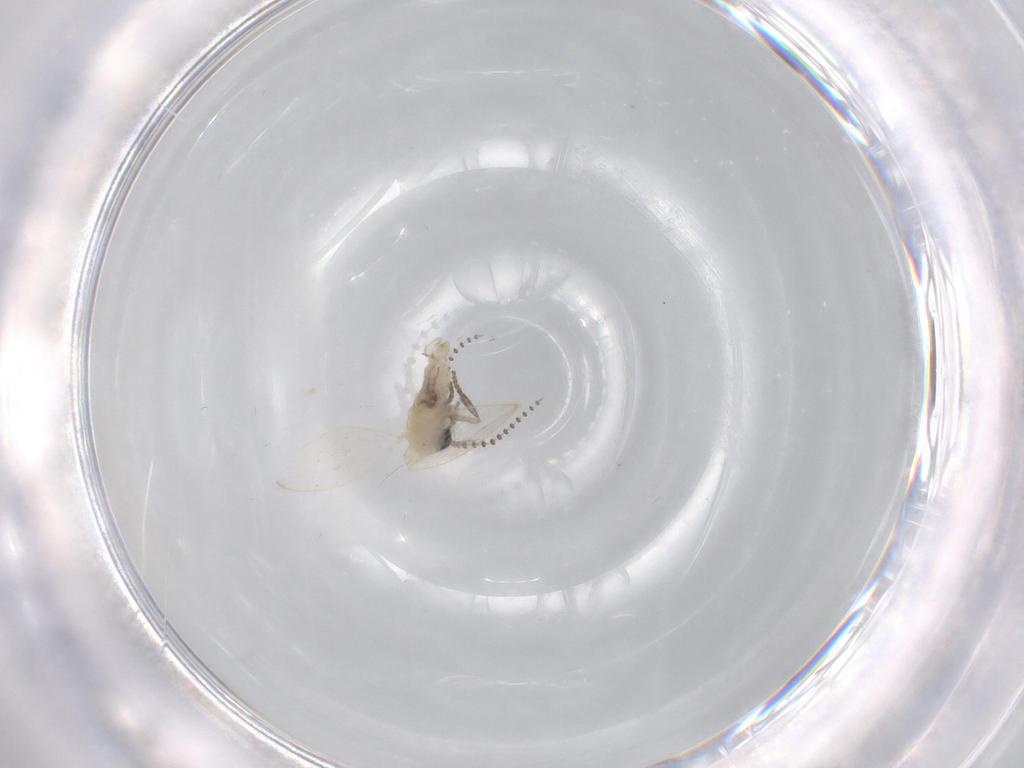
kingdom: Animalia
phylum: Arthropoda
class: Insecta
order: Diptera
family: Psychodidae
